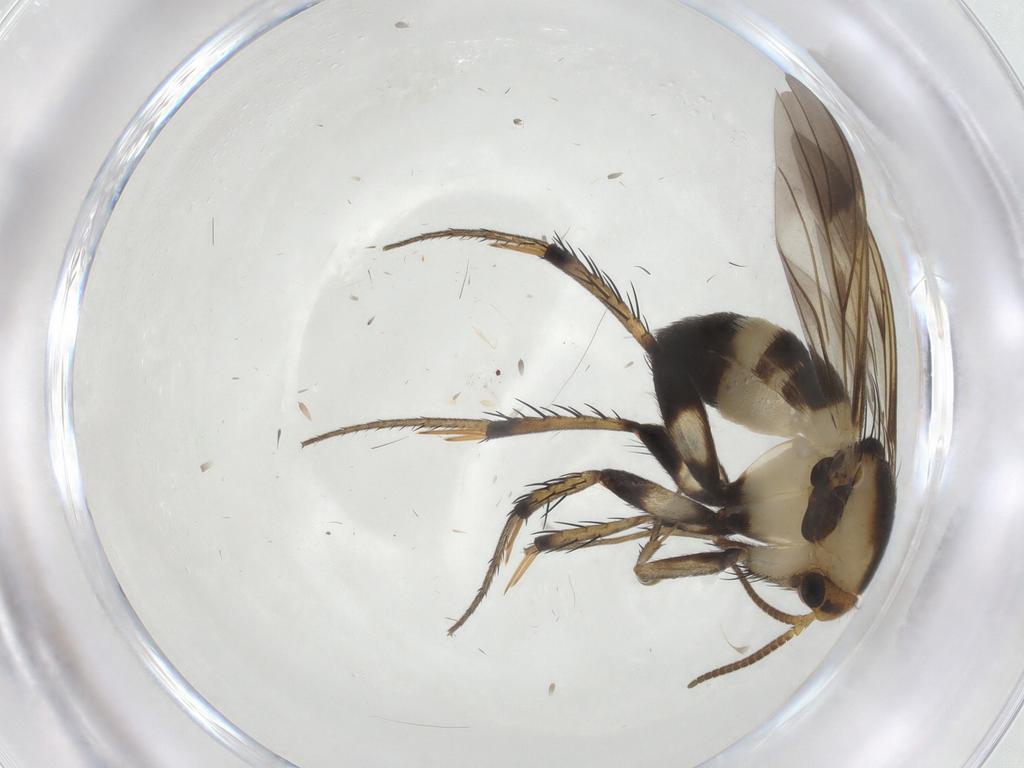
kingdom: Animalia
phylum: Arthropoda
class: Insecta
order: Diptera
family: Mycetophilidae
